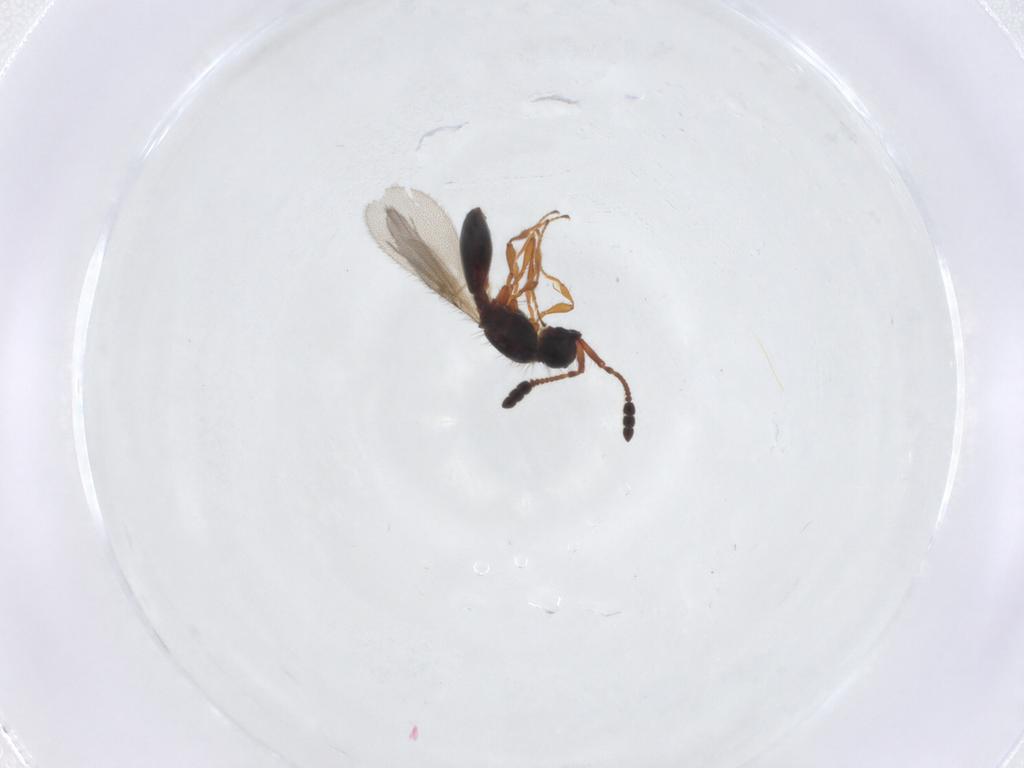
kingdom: Animalia
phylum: Arthropoda
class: Insecta
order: Hymenoptera
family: Diapriidae
